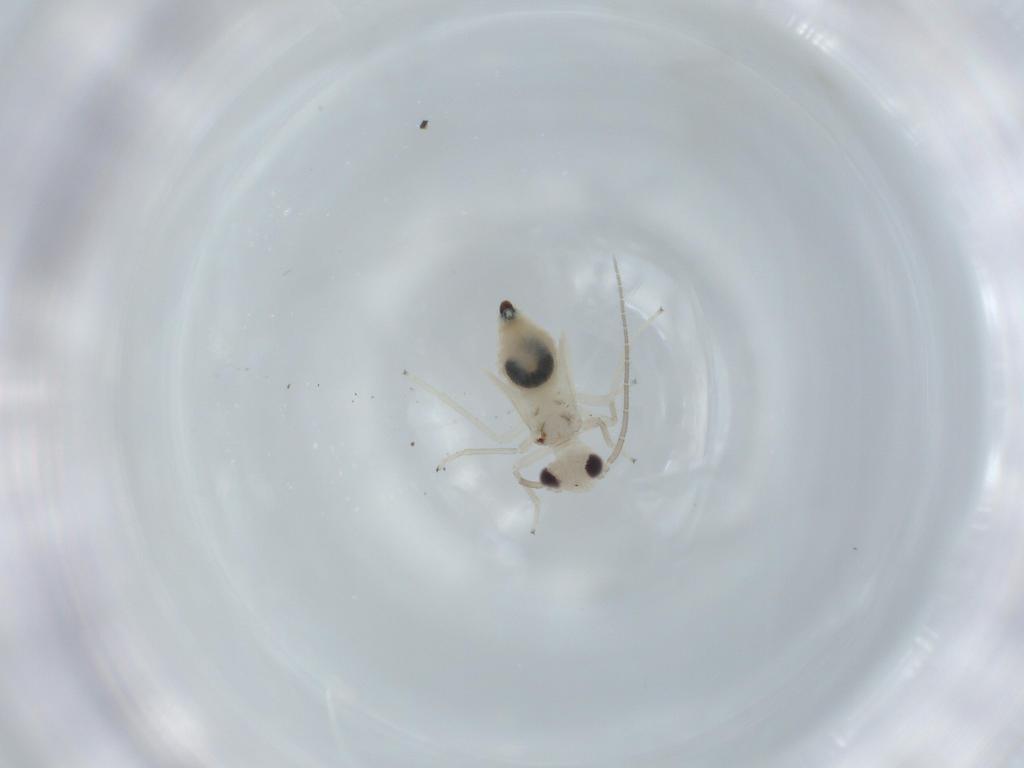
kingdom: Animalia
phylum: Arthropoda
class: Insecta
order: Psocodea
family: Caeciliusidae
